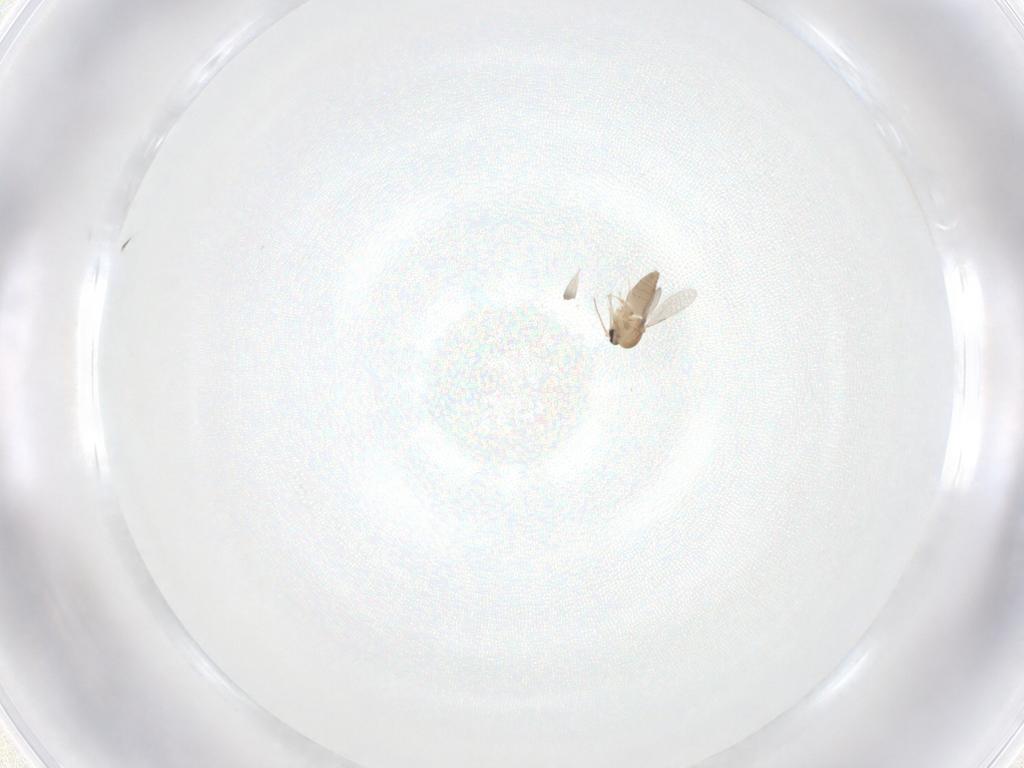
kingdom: Animalia
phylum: Arthropoda
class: Insecta
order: Diptera
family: Ceratopogonidae
